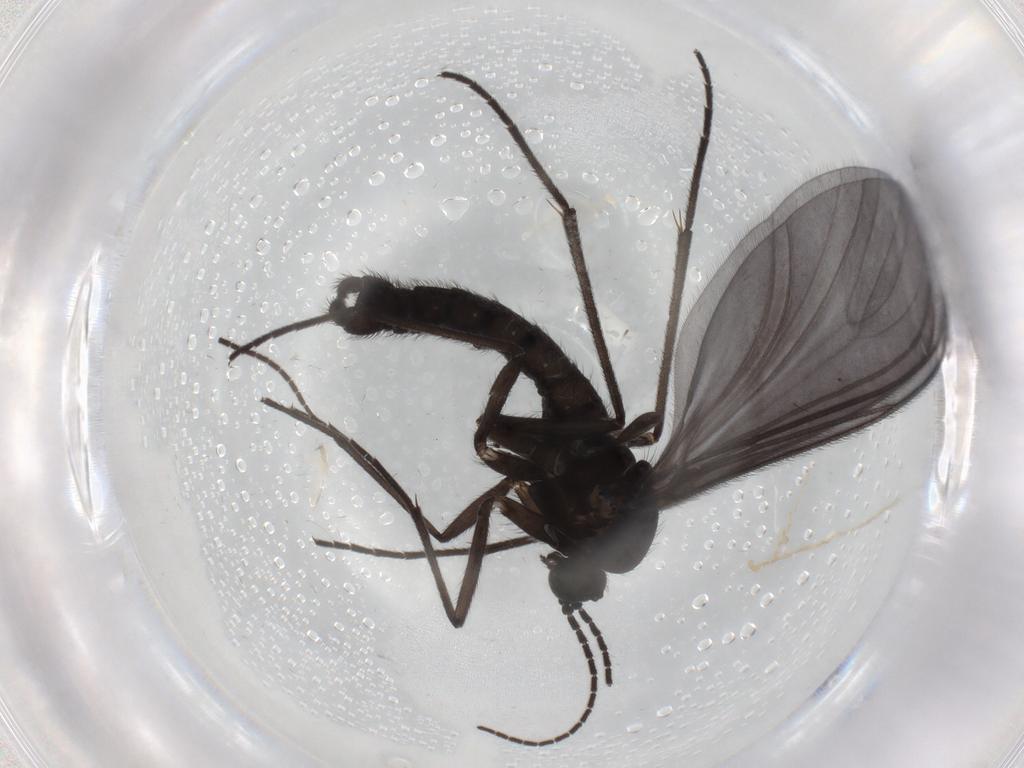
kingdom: Animalia
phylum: Arthropoda
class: Insecta
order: Diptera
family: Sciaridae
